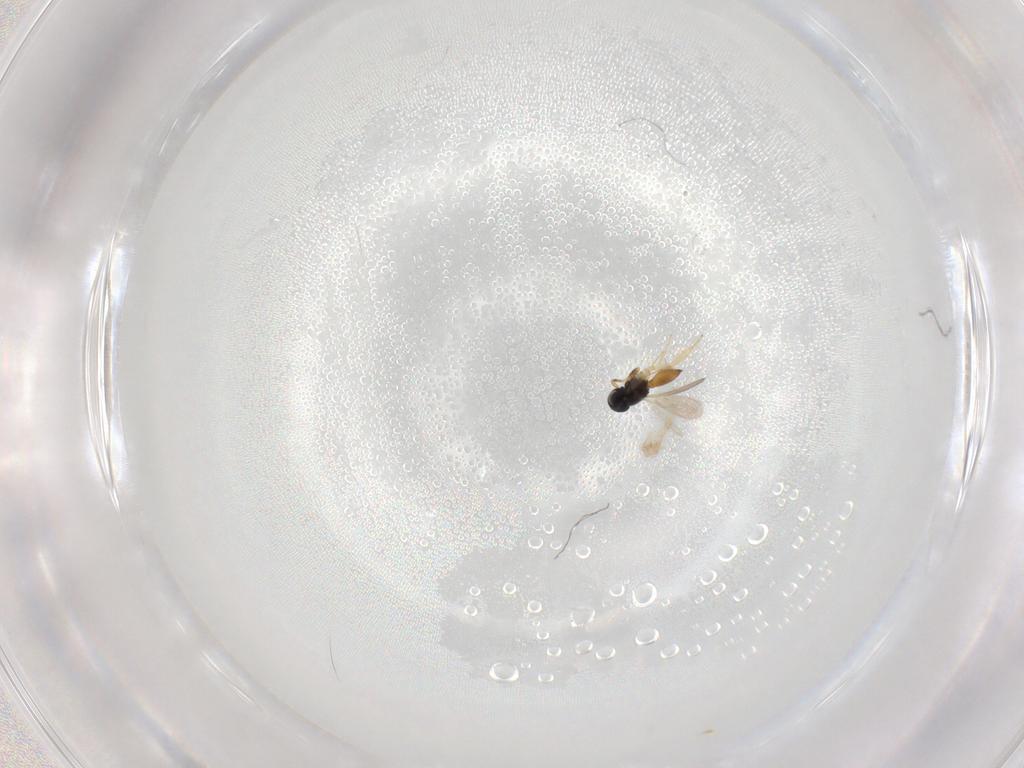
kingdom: Animalia
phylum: Arthropoda
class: Insecta
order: Hymenoptera
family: Scelionidae
